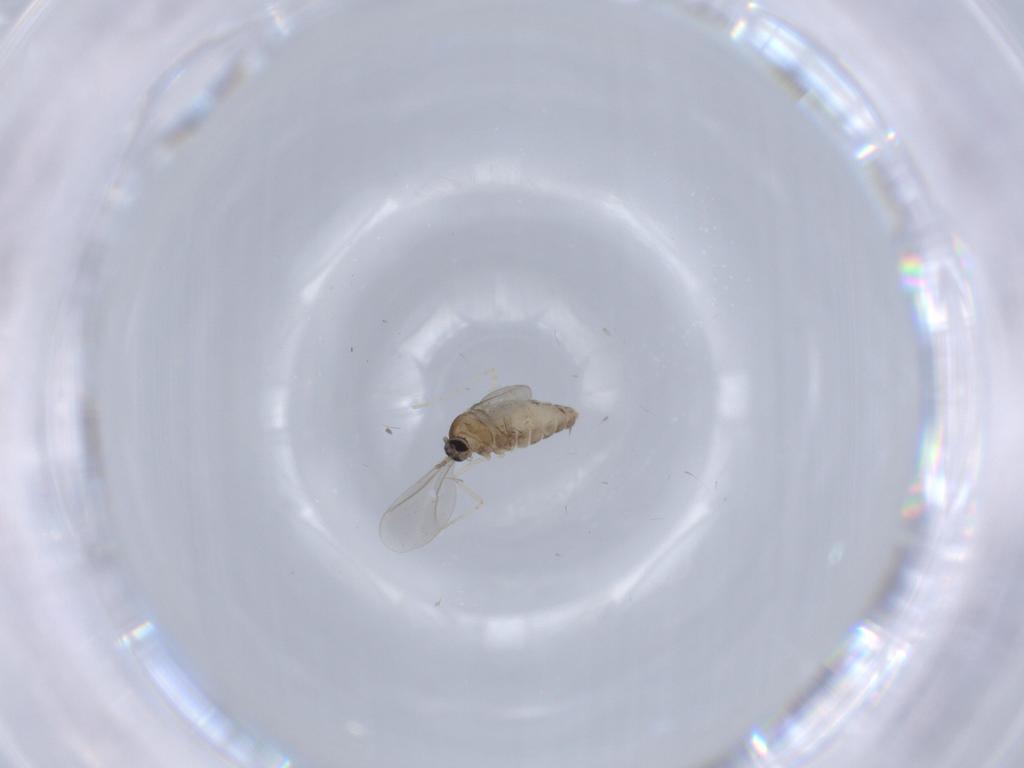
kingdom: Animalia
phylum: Arthropoda
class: Insecta
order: Diptera
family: Cecidomyiidae
